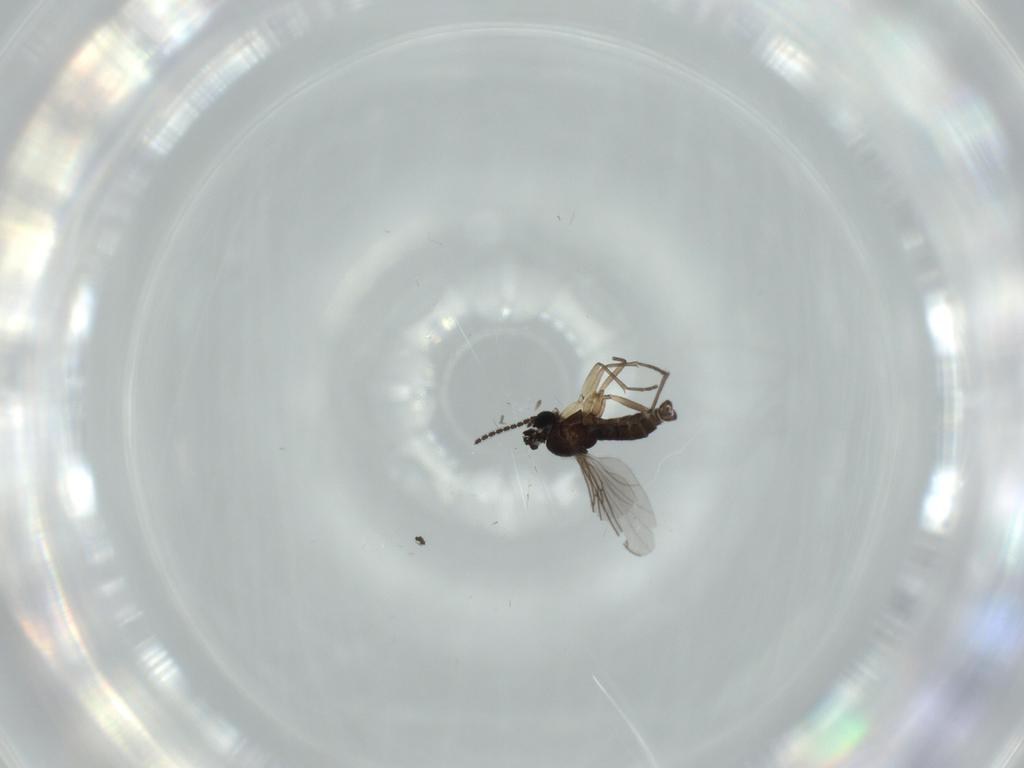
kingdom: Animalia
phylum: Arthropoda
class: Insecta
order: Diptera
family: Sciaridae
